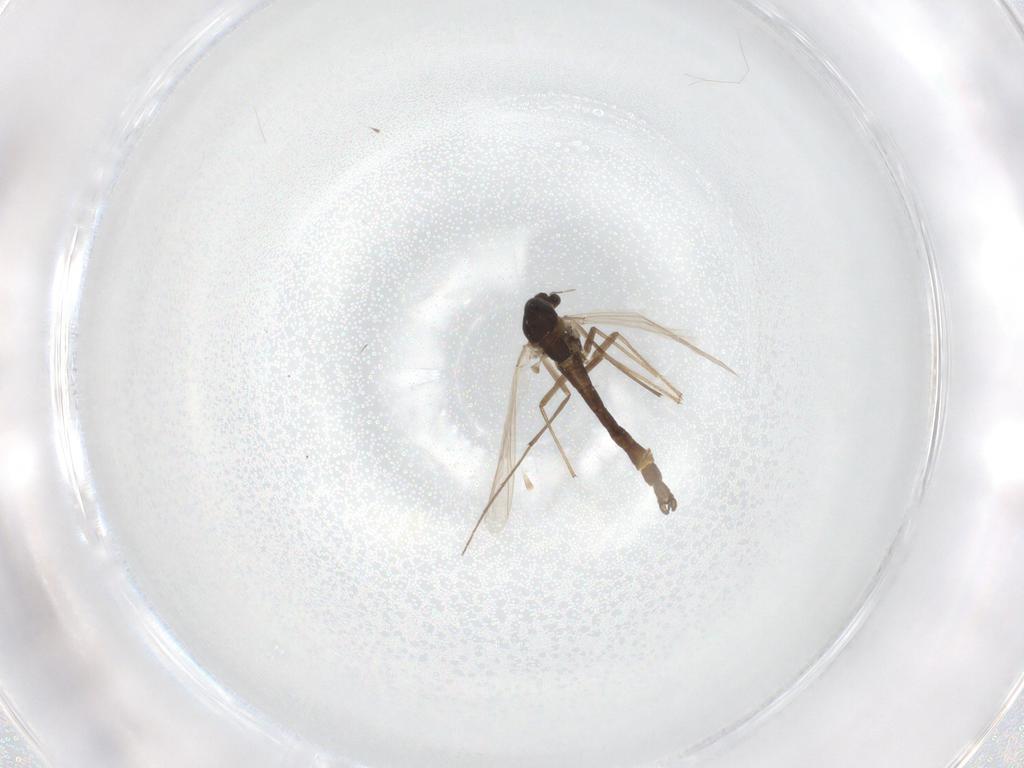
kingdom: Animalia
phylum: Arthropoda
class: Insecta
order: Diptera
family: Chironomidae
